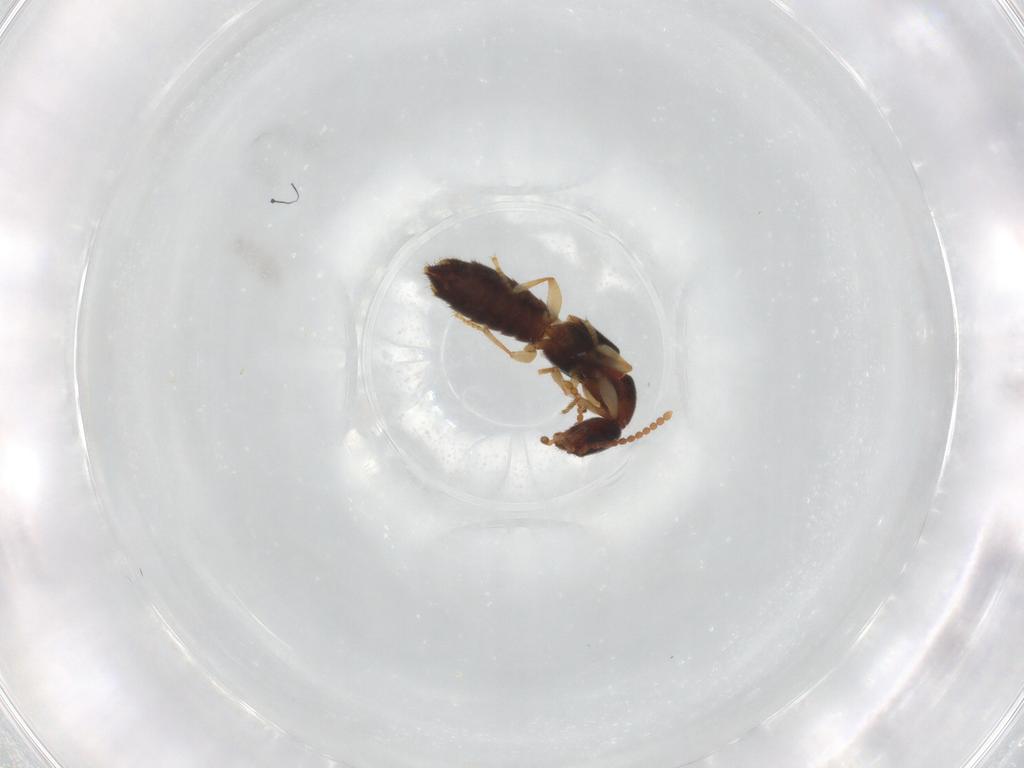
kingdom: Animalia
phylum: Arthropoda
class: Insecta
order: Coleoptera
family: Staphylinidae
